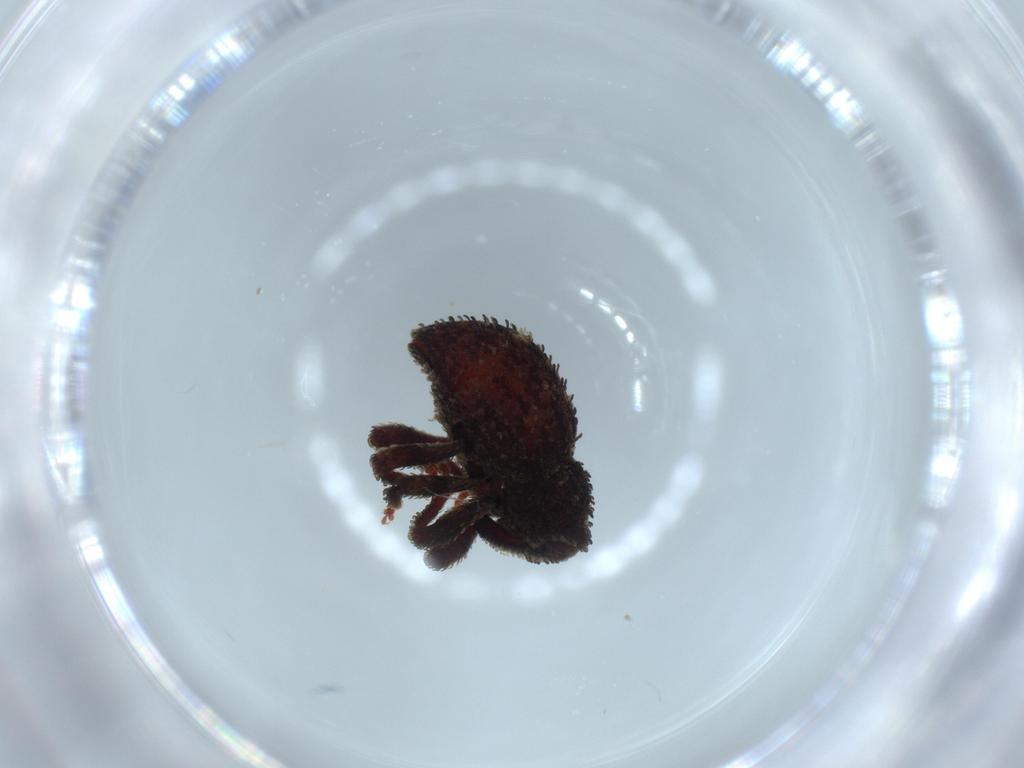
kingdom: Animalia
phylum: Arthropoda
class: Insecta
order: Coleoptera
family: Curculionidae
